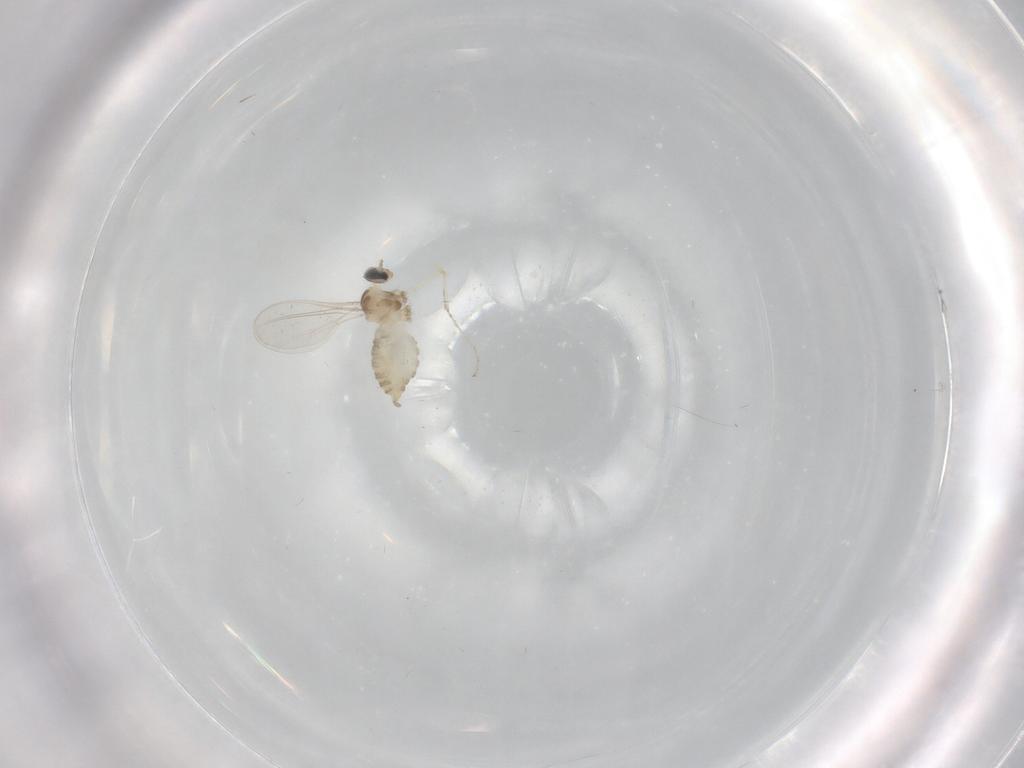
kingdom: Animalia
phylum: Arthropoda
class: Insecta
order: Diptera
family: Cecidomyiidae
